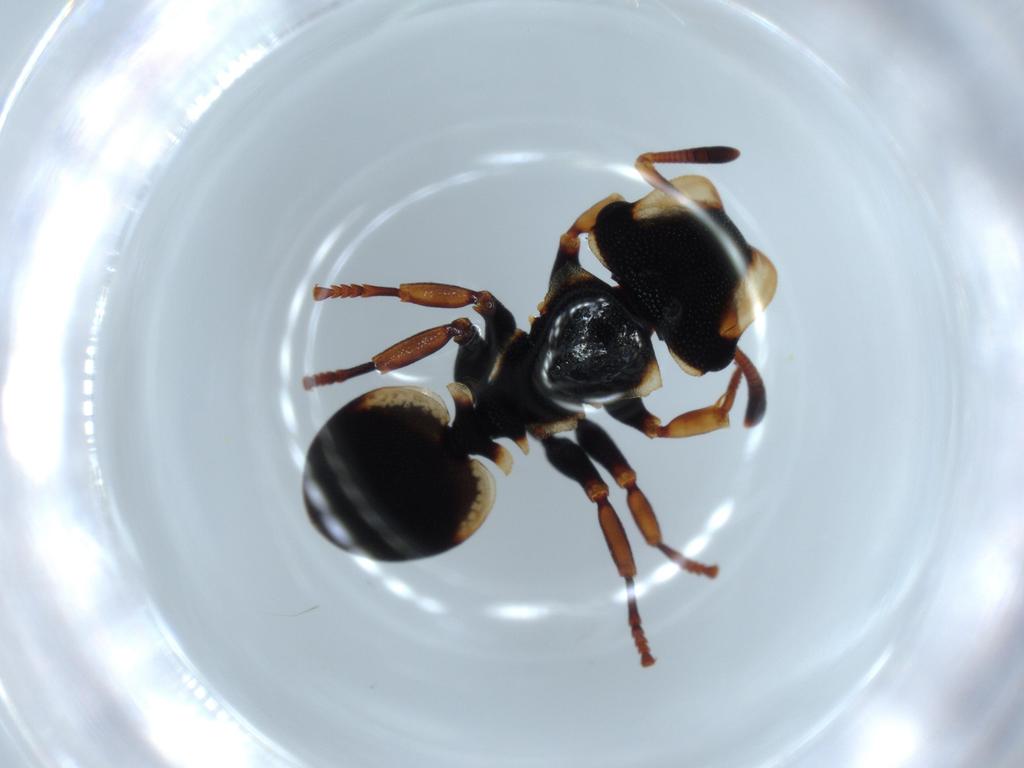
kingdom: Animalia
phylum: Arthropoda
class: Insecta
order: Hymenoptera
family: Formicidae
